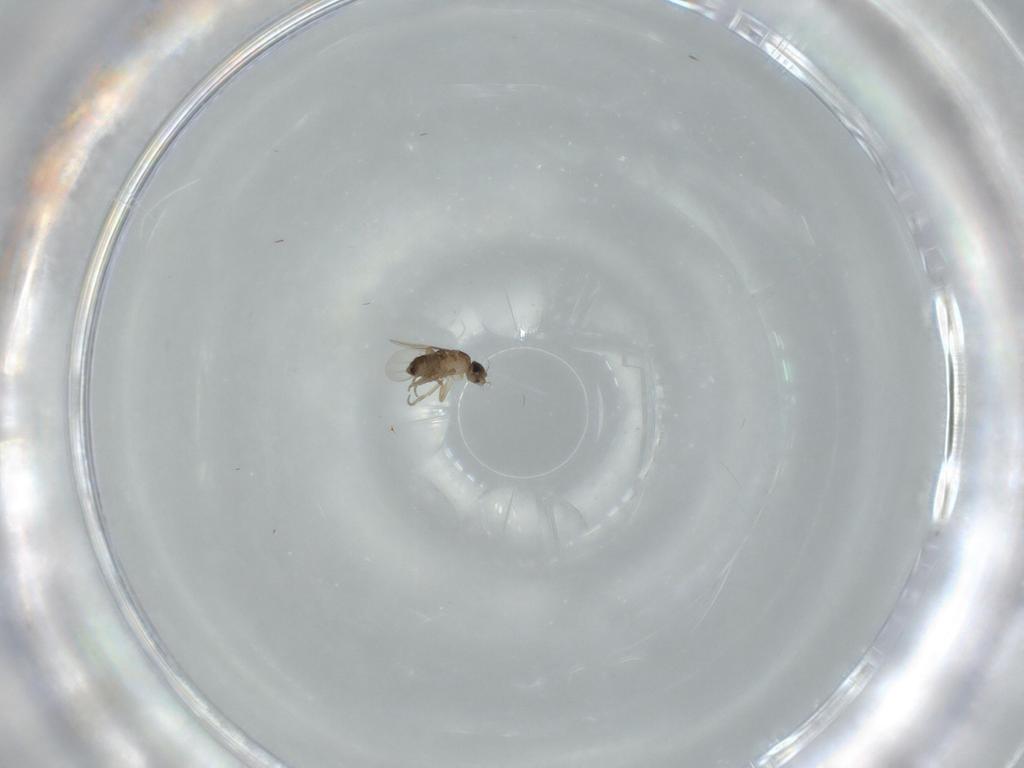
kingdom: Animalia
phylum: Arthropoda
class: Insecta
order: Diptera
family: Phoridae
